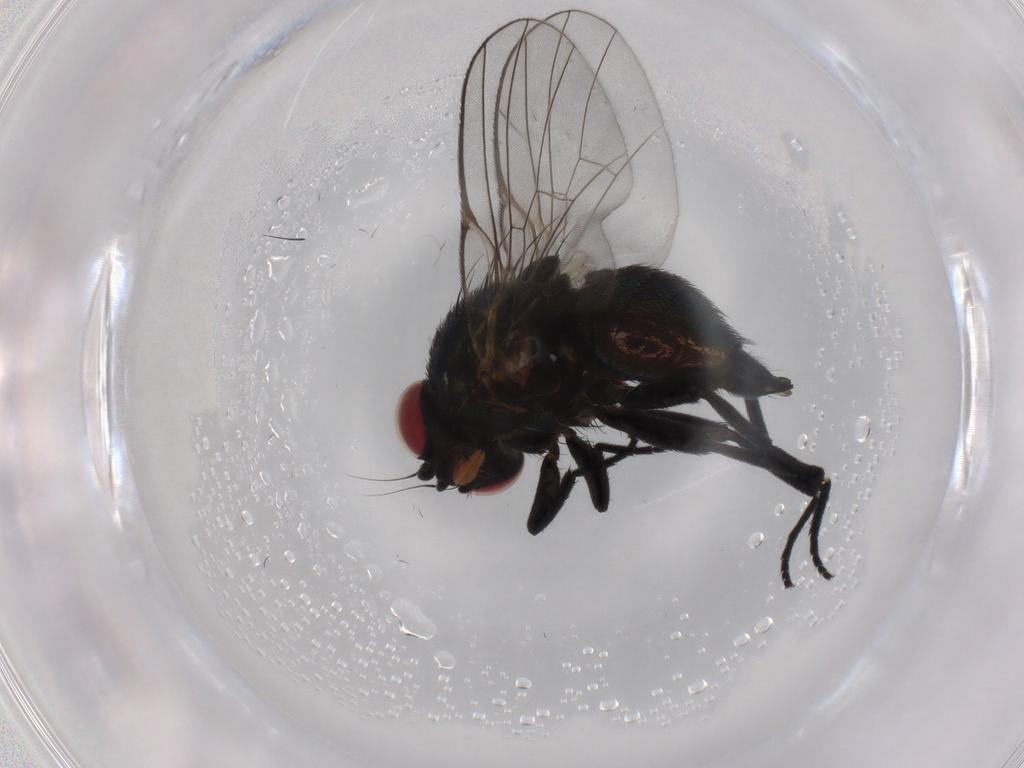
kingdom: Animalia
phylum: Arthropoda
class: Insecta
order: Diptera
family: Agromyzidae
